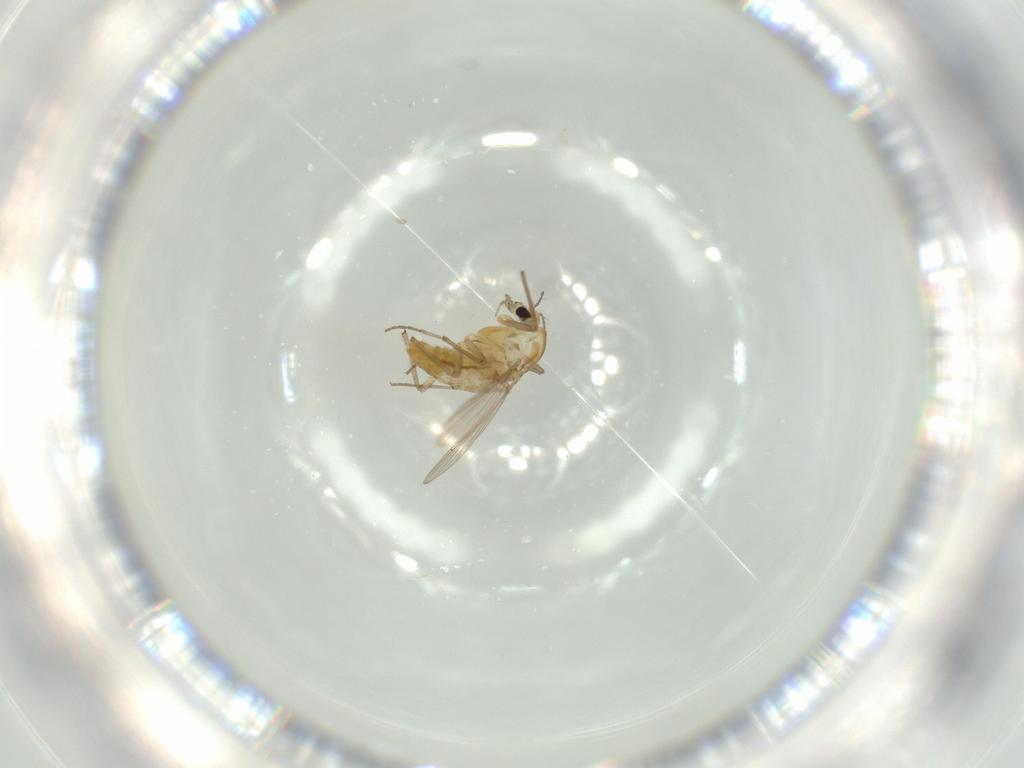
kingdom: Animalia
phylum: Arthropoda
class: Insecta
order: Diptera
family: Chironomidae
